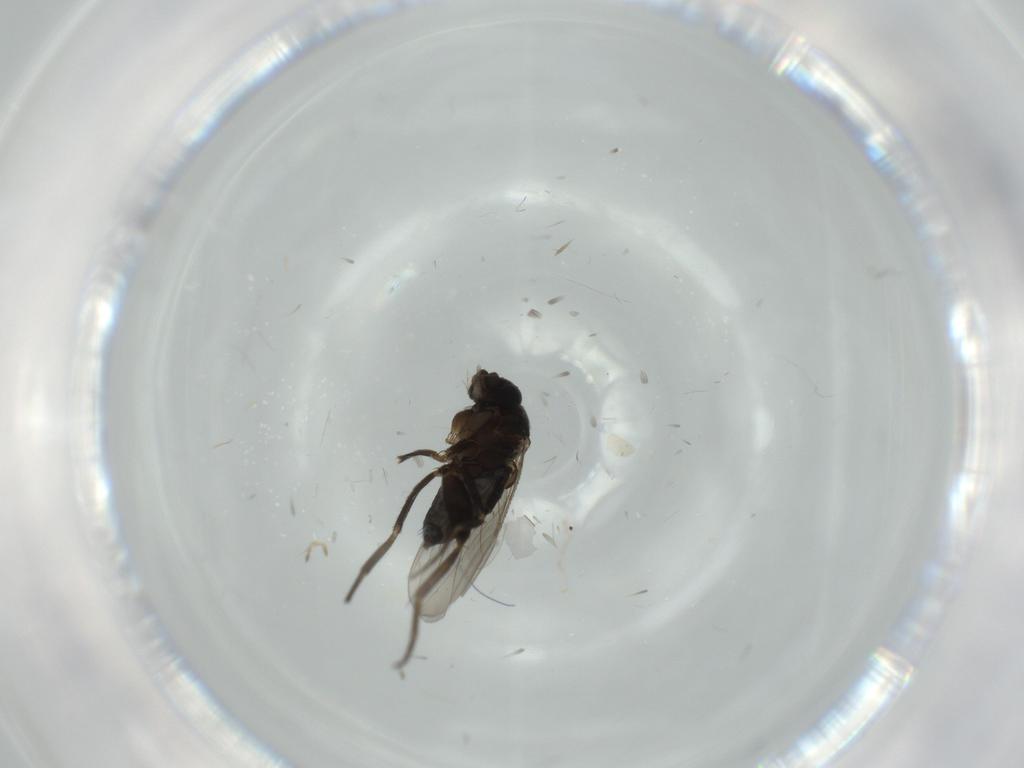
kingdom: Animalia
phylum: Arthropoda
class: Insecta
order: Diptera
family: Phoridae
